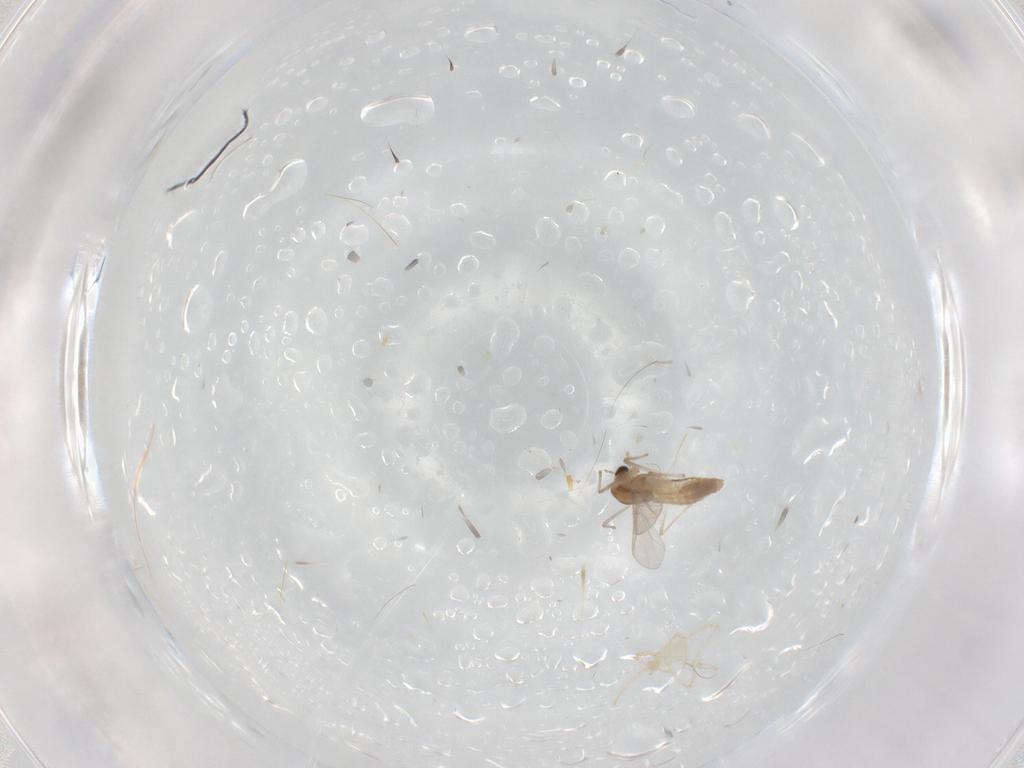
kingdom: Animalia
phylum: Arthropoda
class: Insecta
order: Diptera
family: Chironomidae
